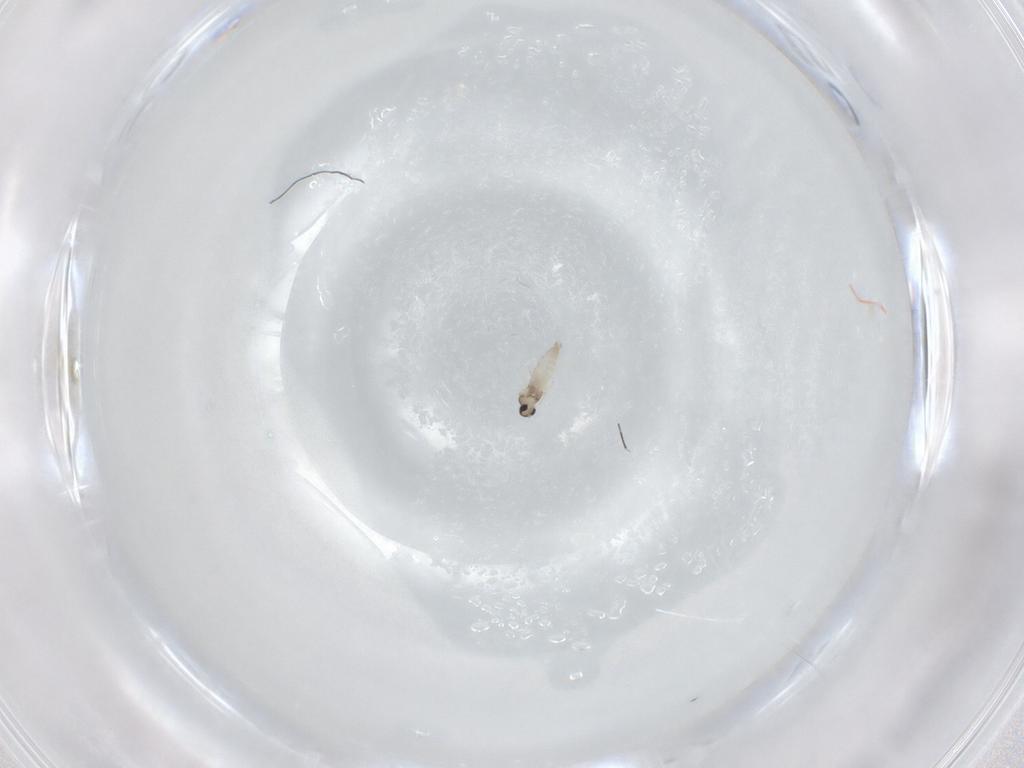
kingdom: Animalia
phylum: Arthropoda
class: Insecta
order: Diptera
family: Phoridae
